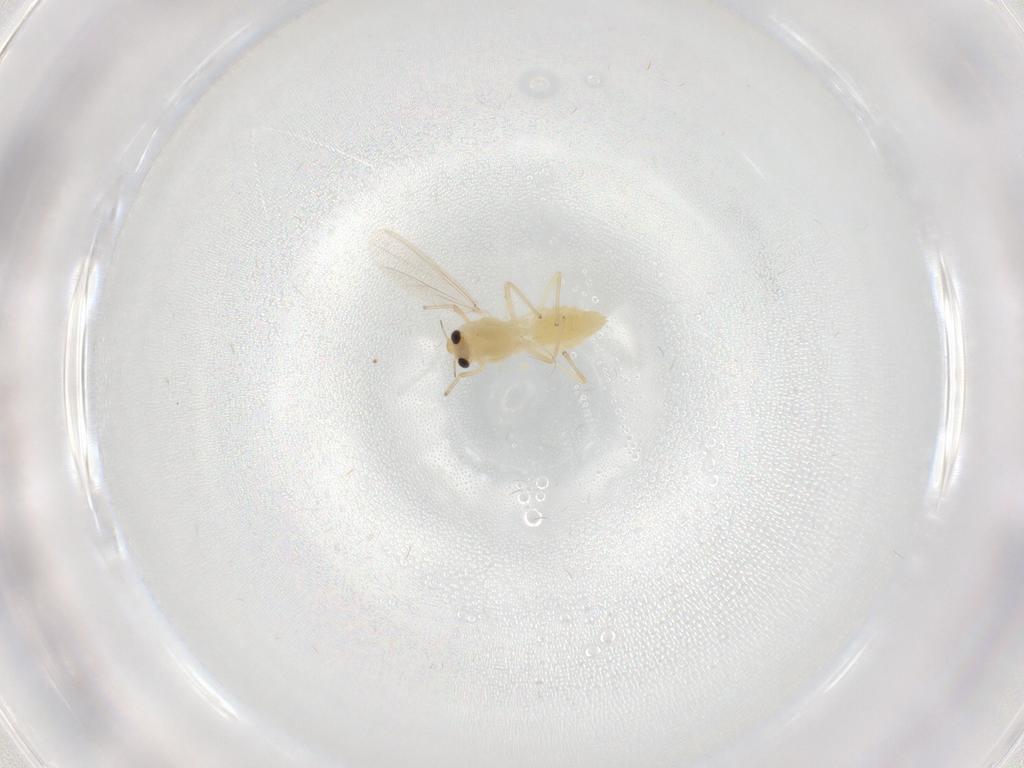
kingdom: Animalia
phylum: Arthropoda
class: Insecta
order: Diptera
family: Chironomidae
